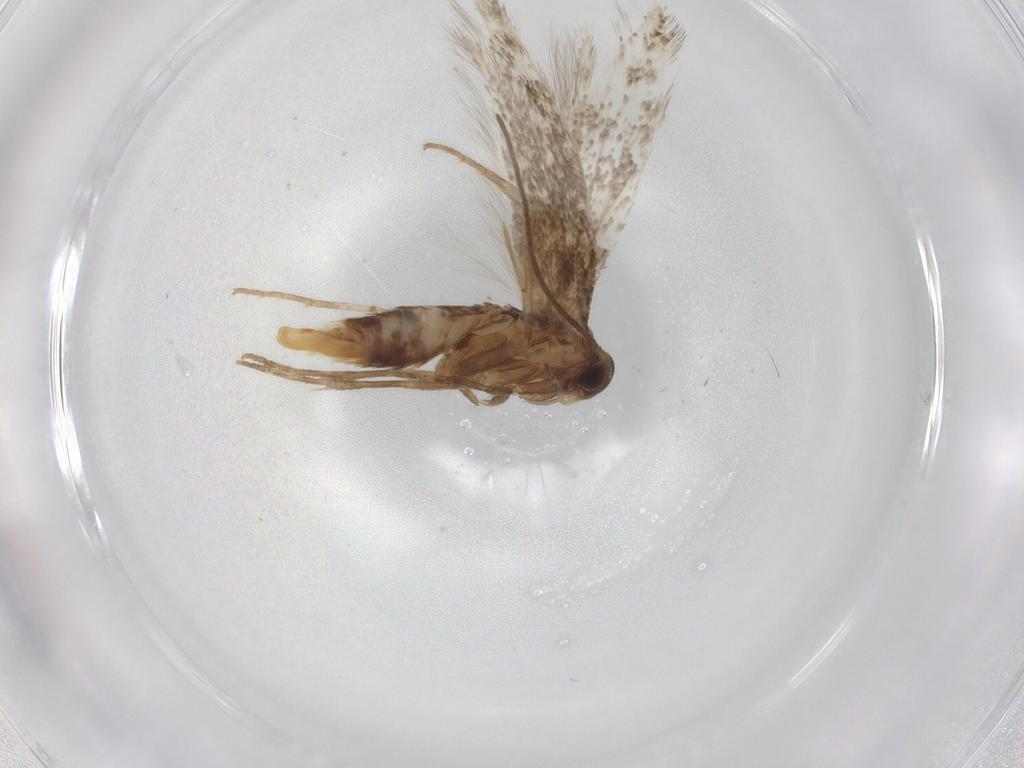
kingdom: Animalia
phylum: Arthropoda
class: Insecta
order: Lepidoptera
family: Elachistidae
